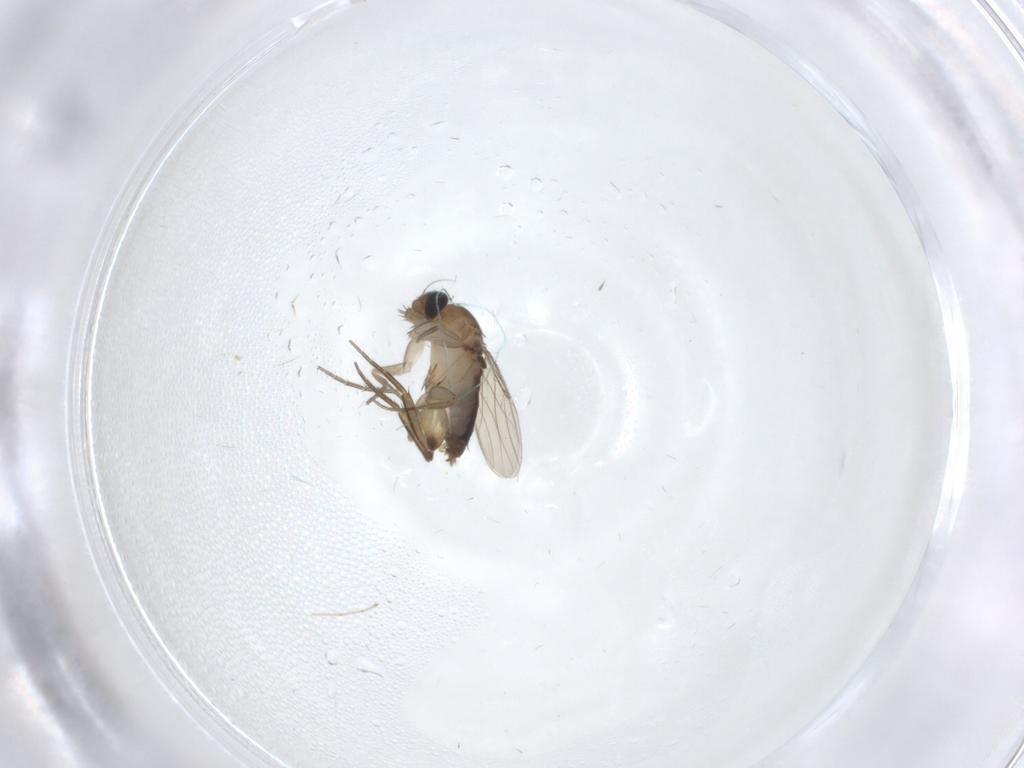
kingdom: Animalia
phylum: Arthropoda
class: Insecta
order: Diptera
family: Phoridae
